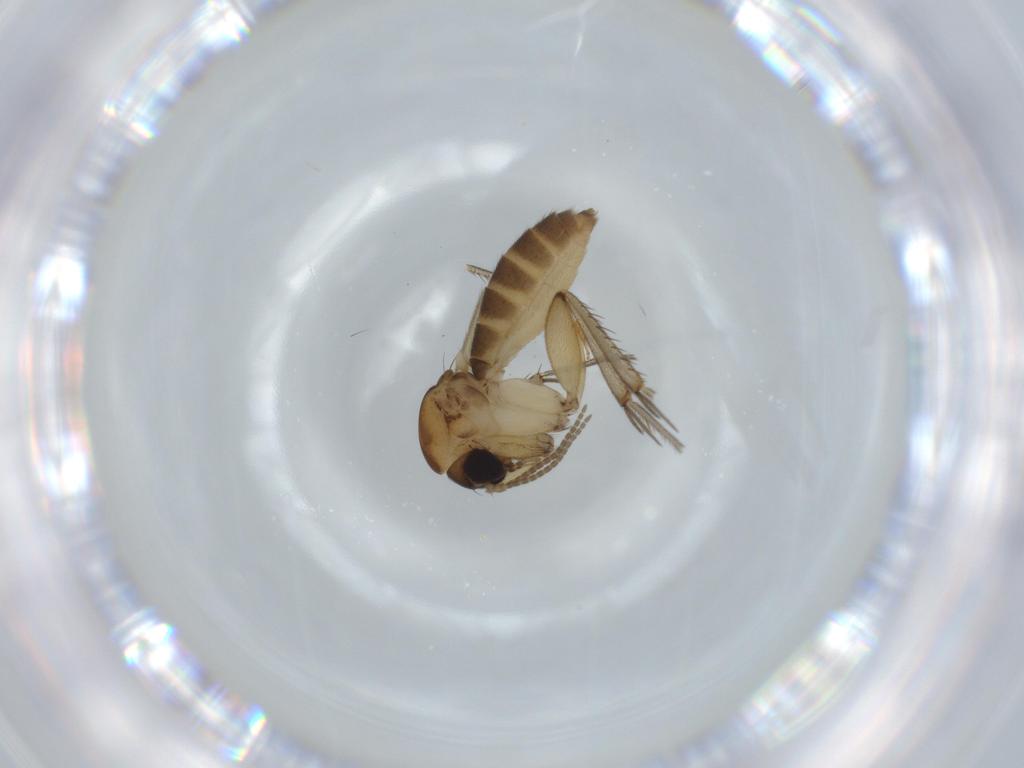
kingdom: Animalia
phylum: Arthropoda
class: Insecta
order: Diptera
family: Mycetophilidae
